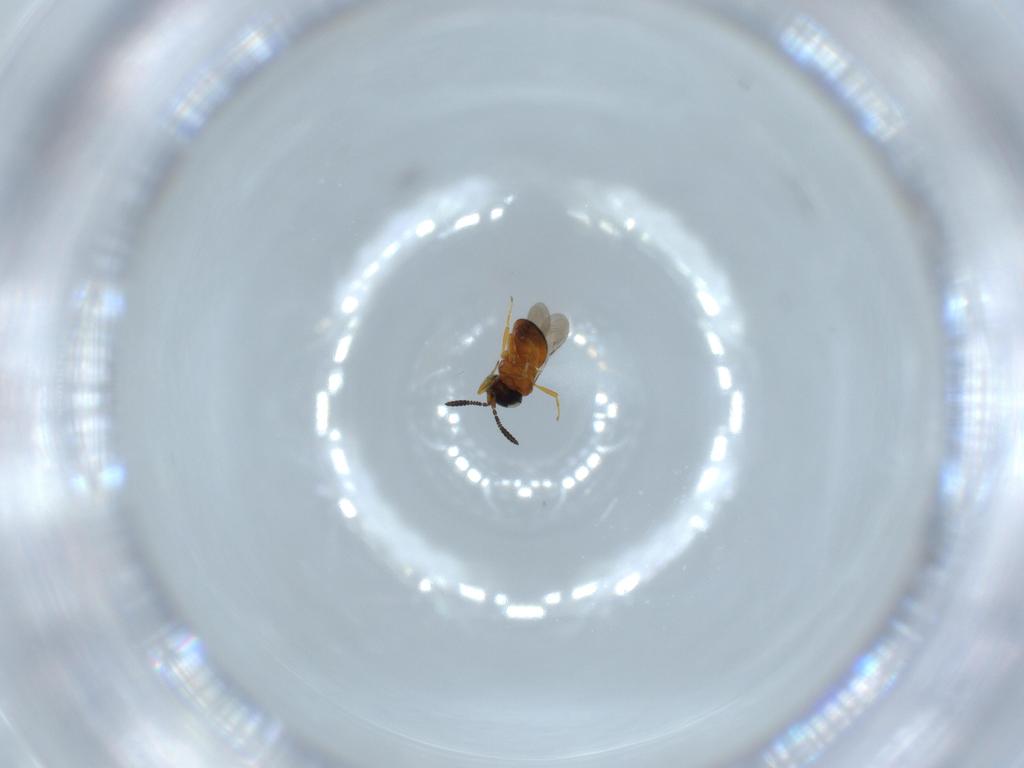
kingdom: Animalia
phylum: Arthropoda
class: Insecta
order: Hymenoptera
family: Scelionidae
